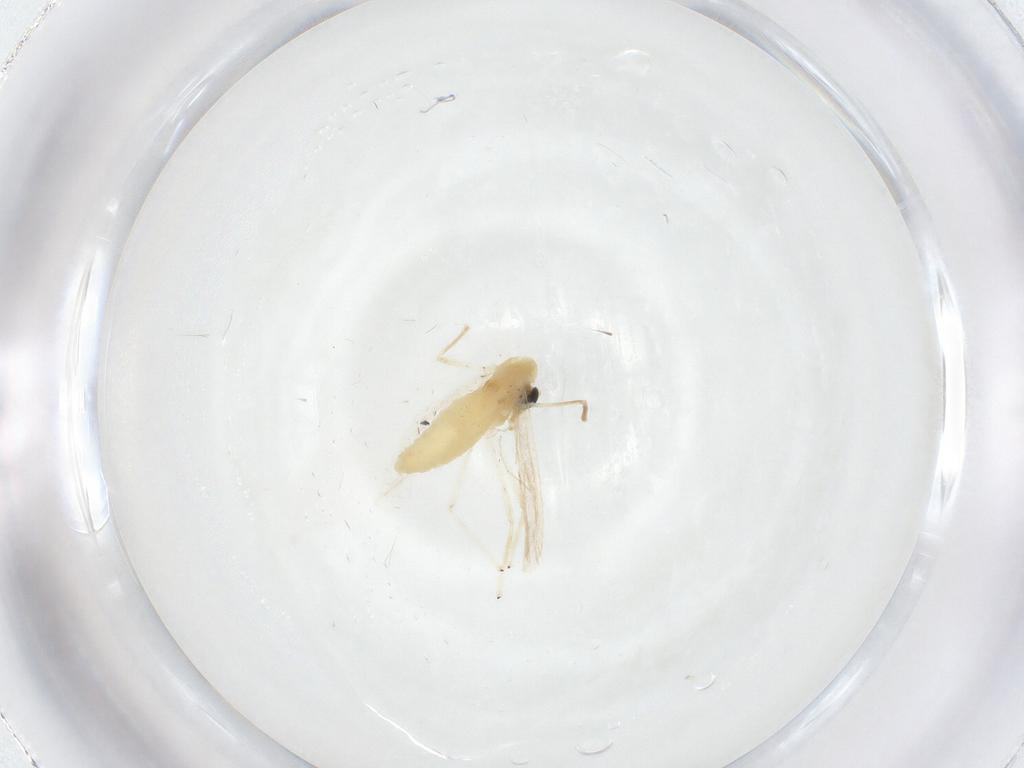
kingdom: Animalia
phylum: Arthropoda
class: Insecta
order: Diptera
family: Chironomidae
